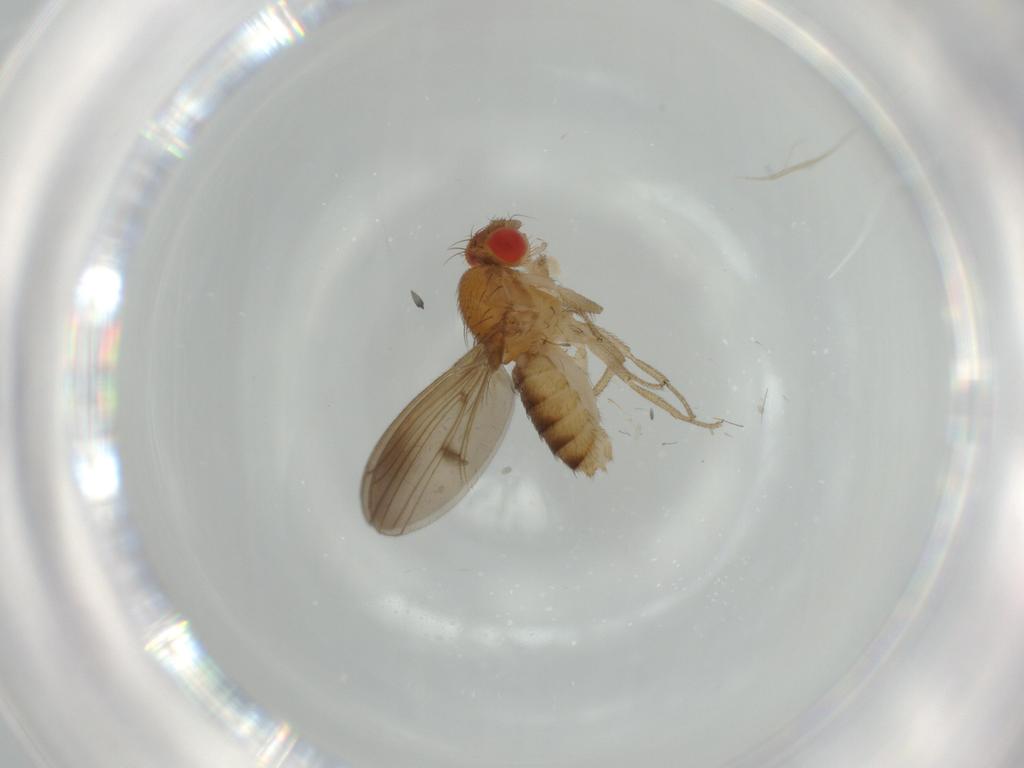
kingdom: Animalia
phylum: Arthropoda
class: Insecta
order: Diptera
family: Drosophilidae
